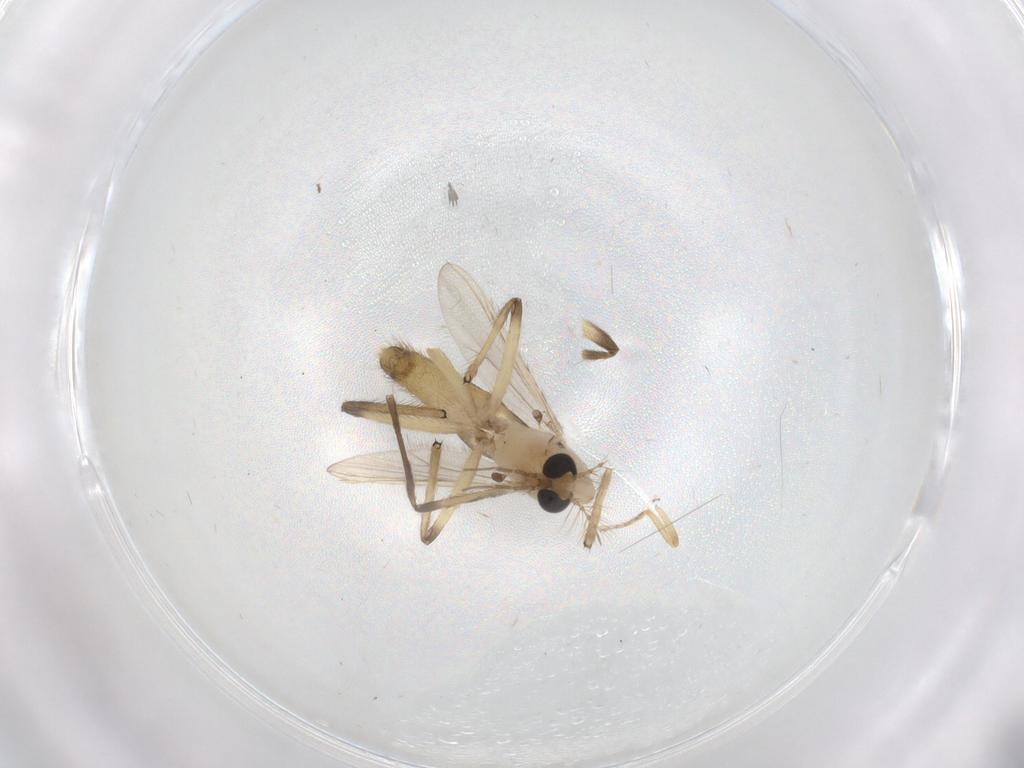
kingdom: Animalia
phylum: Arthropoda
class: Insecta
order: Diptera
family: Chironomidae
